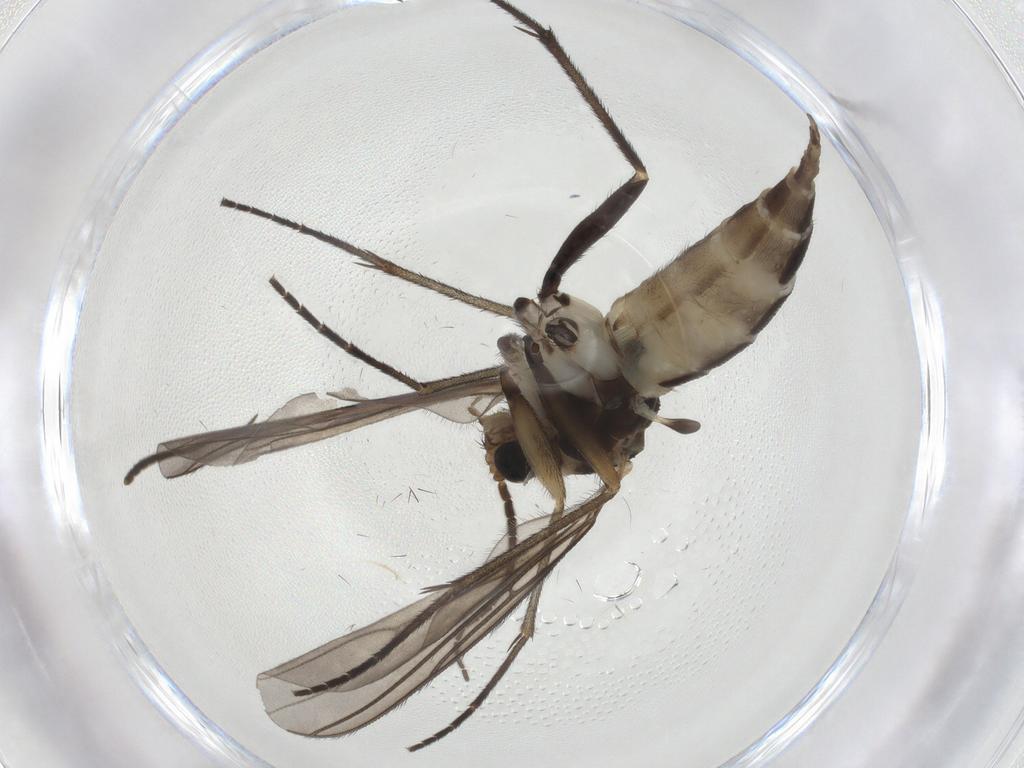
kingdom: Animalia
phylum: Arthropoda
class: Insecta
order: Diptera
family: Sciaridae
